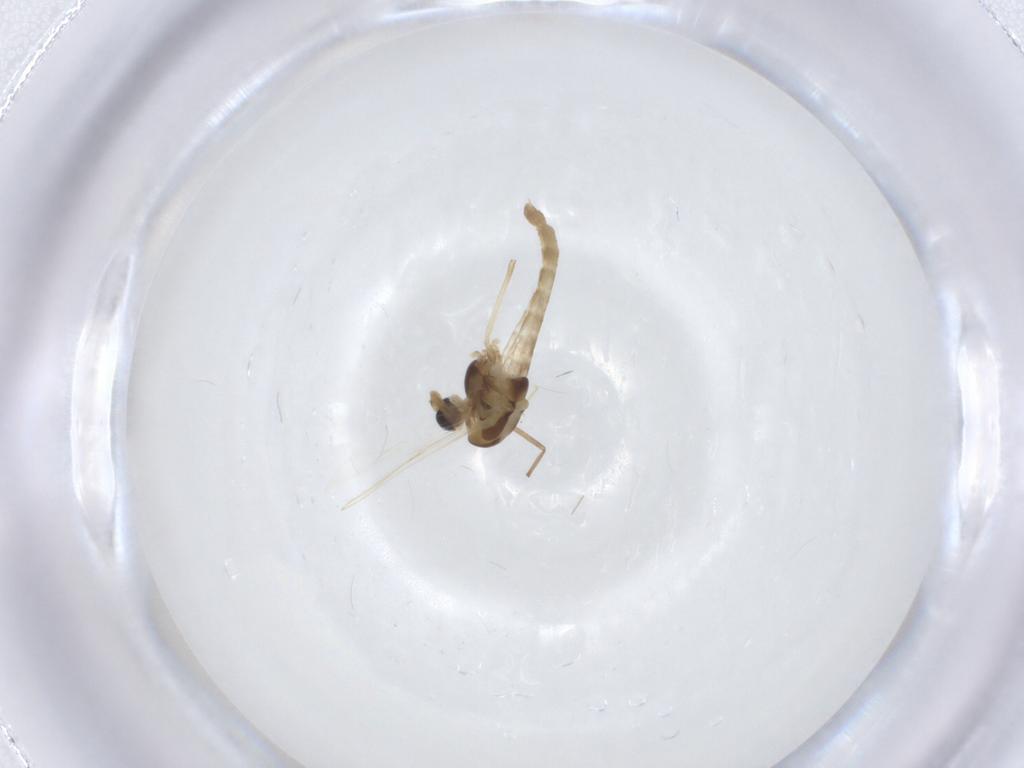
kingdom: Animalia
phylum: Arthropoda
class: Insecta
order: Diptera
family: Chironomidae
